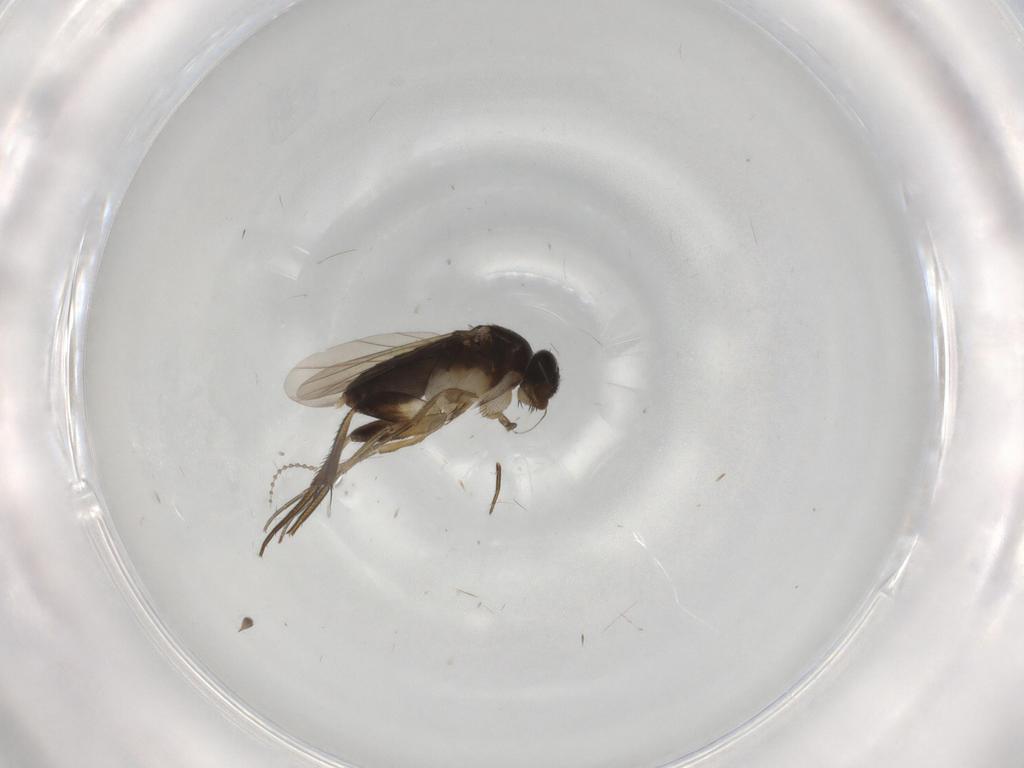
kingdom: Animalia
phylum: Arthropoda
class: Insecta
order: Diptera
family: Phoridae
